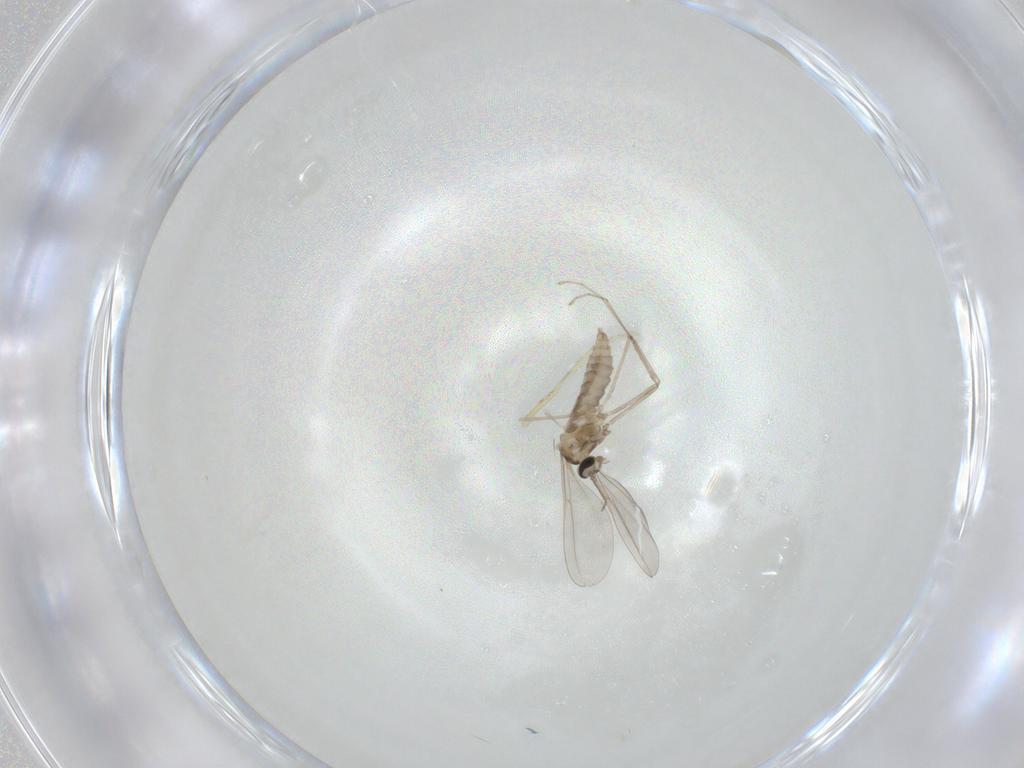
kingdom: Animalia
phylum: Arthropoda
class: Insecta
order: Diptera
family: Cecidomyiidae
